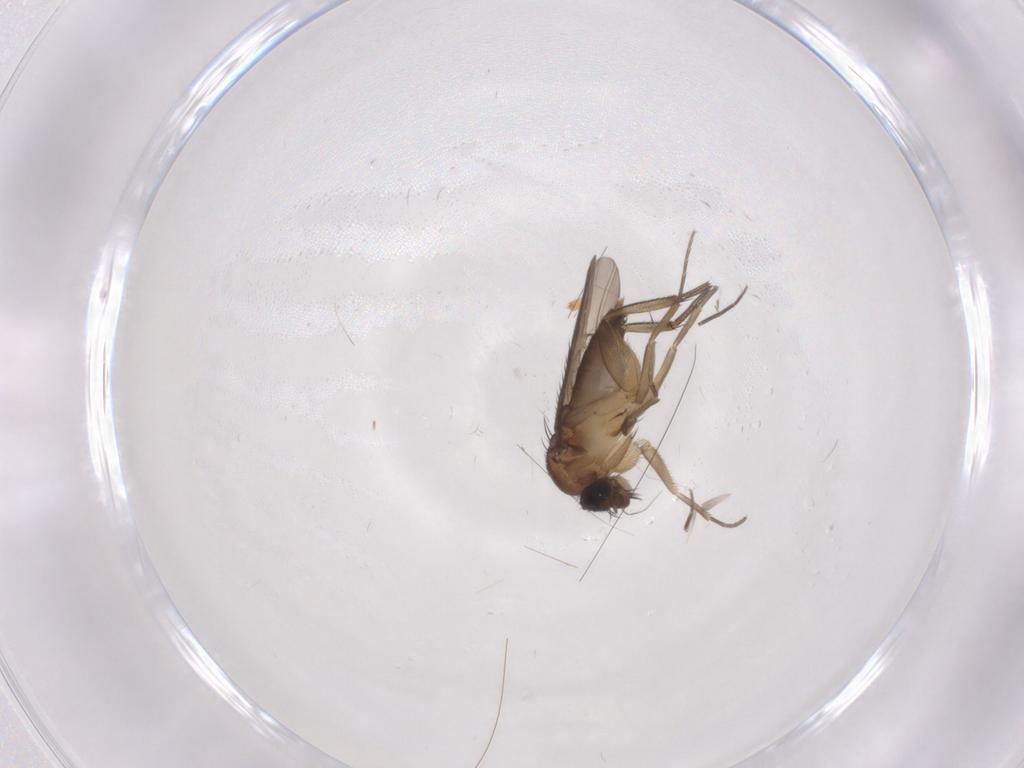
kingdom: Animalia
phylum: Arthropoda
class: Insecta
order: Diptera
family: Phoridae
